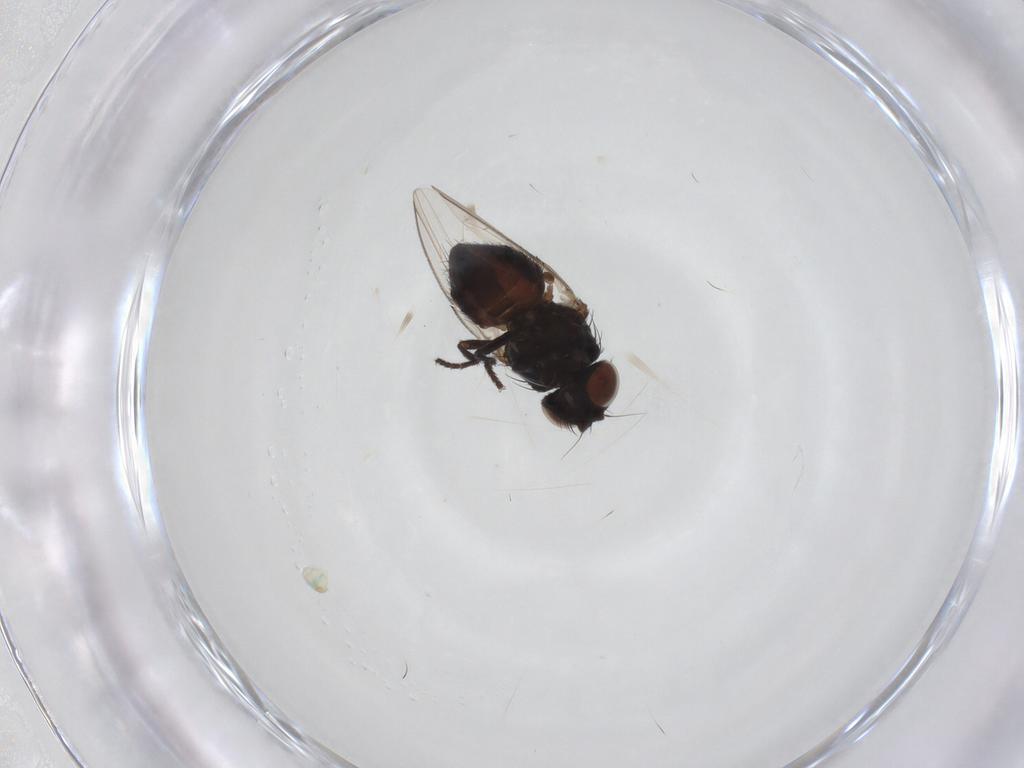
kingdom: Animalia
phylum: Arthropoda
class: Insecta
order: Diptera
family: Chloropidae
